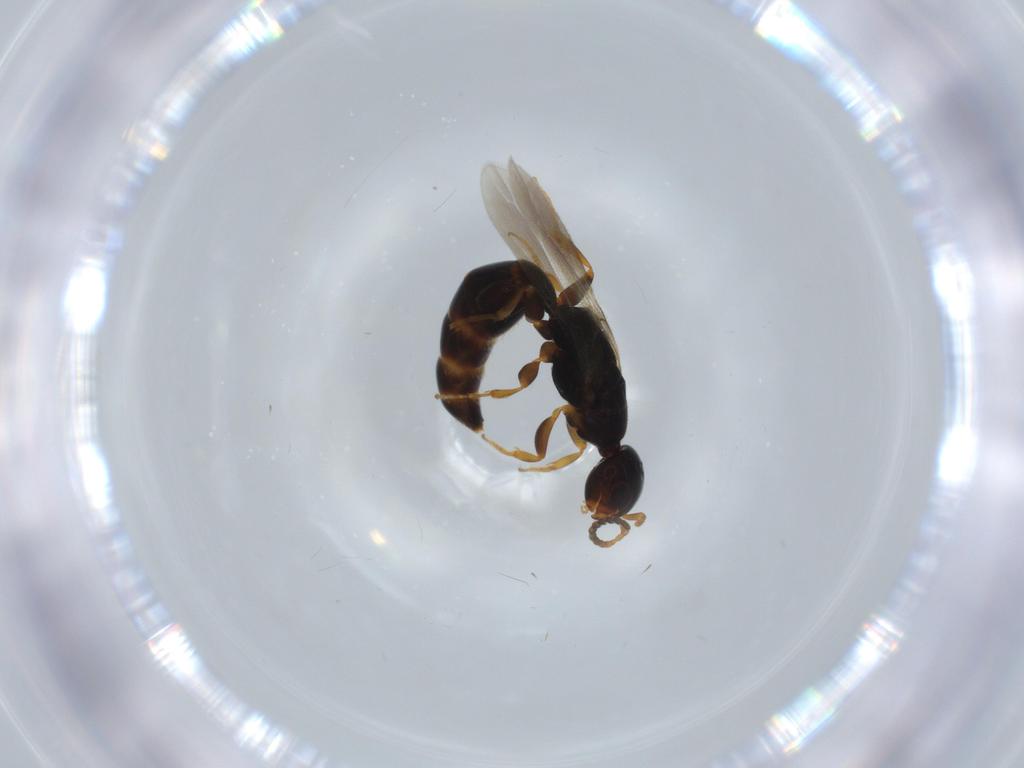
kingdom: Animalia
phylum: Arthropoda
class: Insecta
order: Hymenoptera
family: Bethylidae
